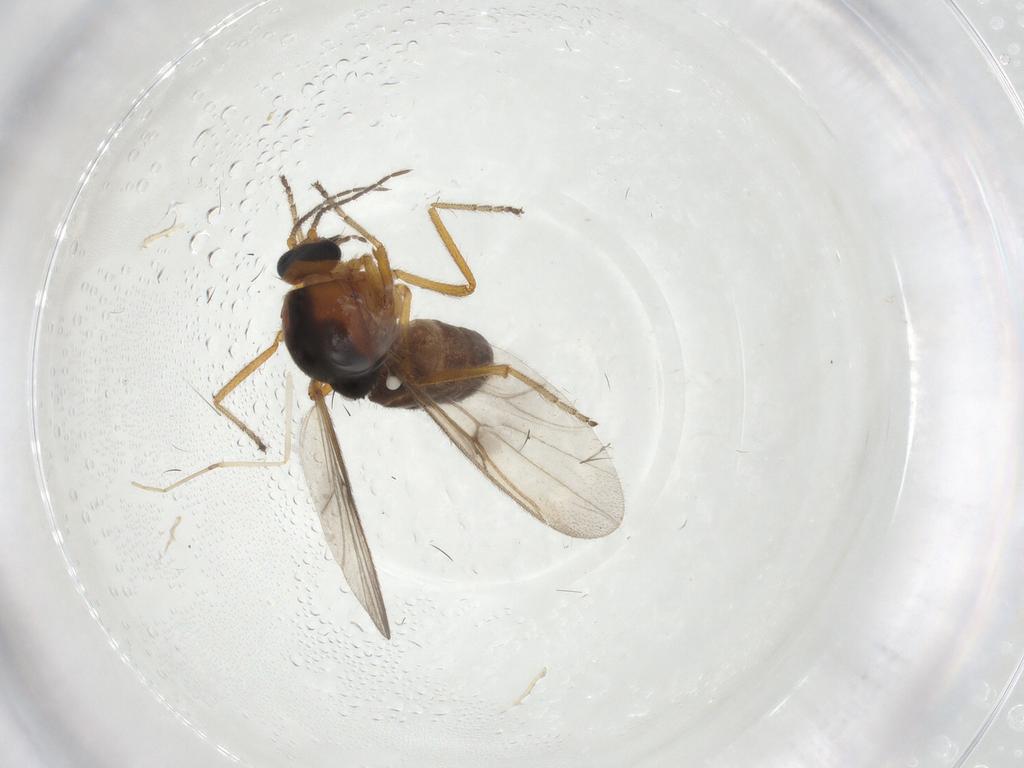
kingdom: Animalia
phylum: Arthropoda
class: Insecta
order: Diptera
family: Ceratopogonidae
